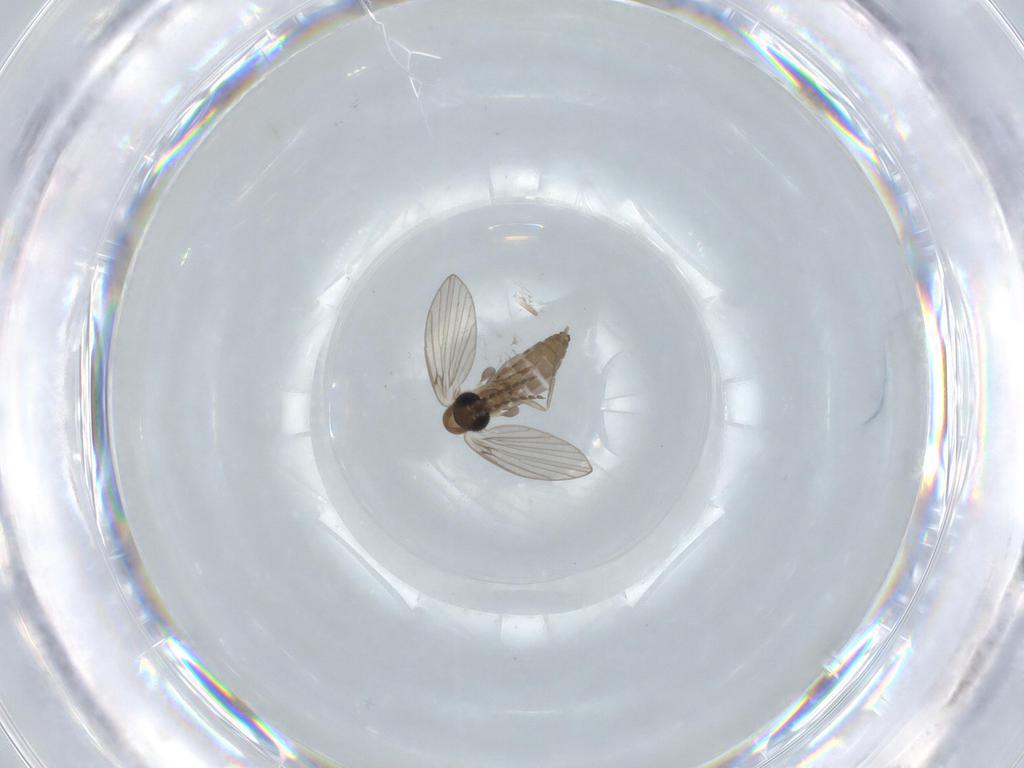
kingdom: Animalia
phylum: Arthropoda
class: Insecta
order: Diptera
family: Psychodidae
